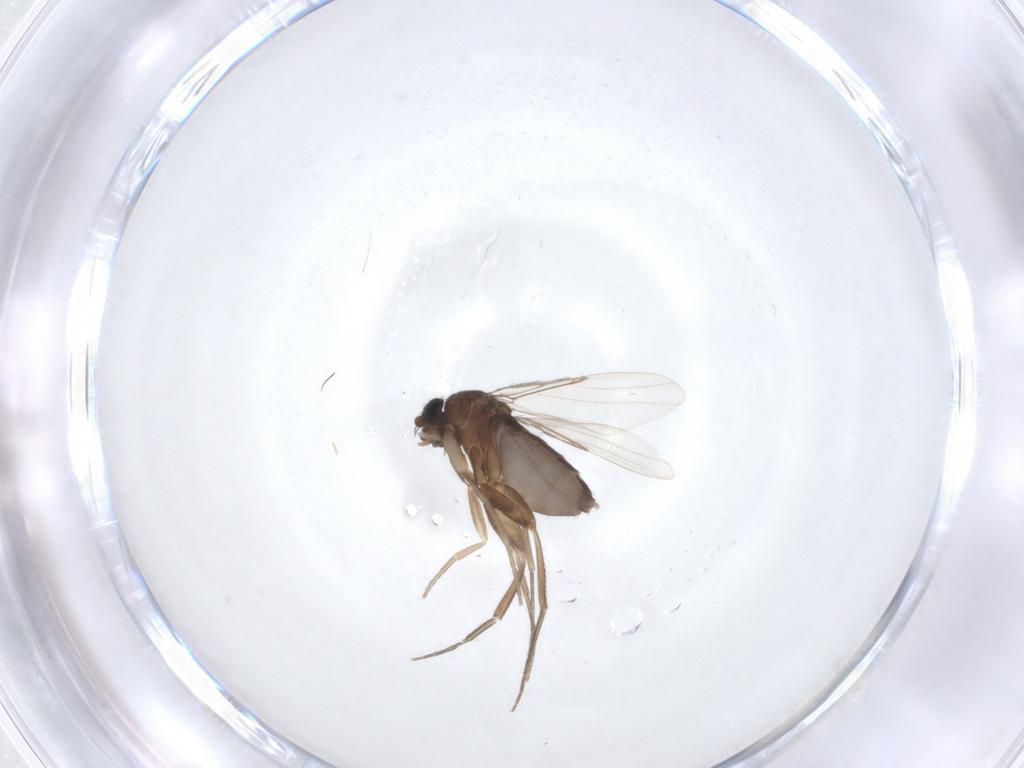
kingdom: Animalia
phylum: Arthropoda
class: Insecta
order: Diptera
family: Phoridae
